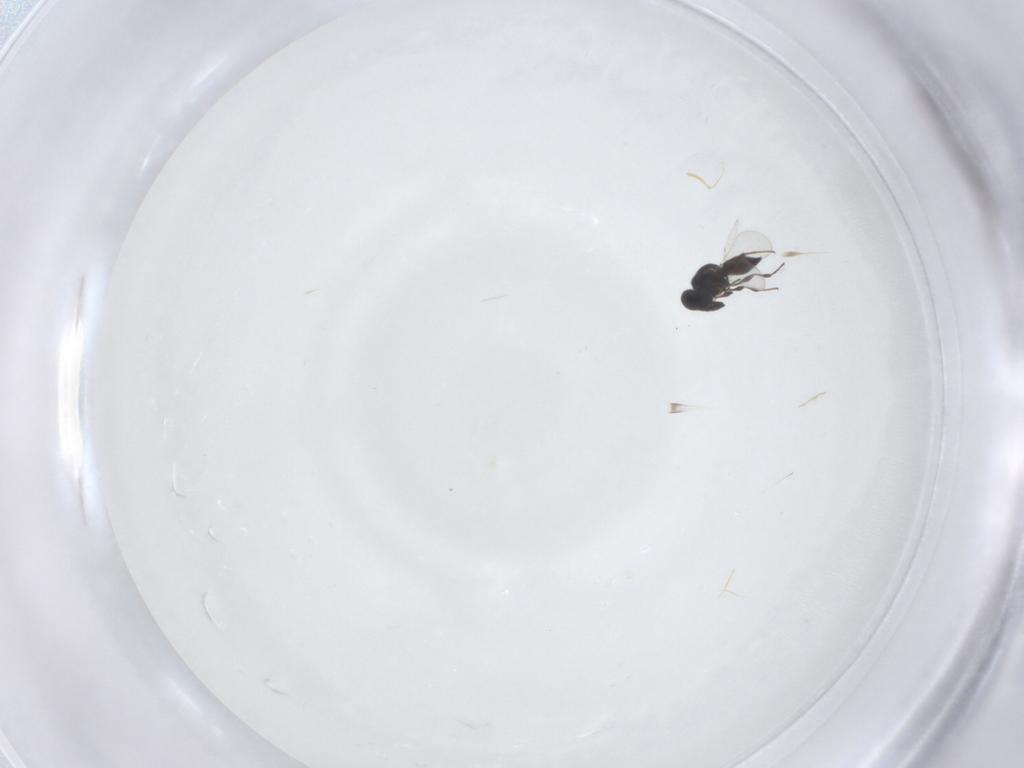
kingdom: Animalia
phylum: Arthropoda
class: Insecta
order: Hymenoptera
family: Platygastridae
